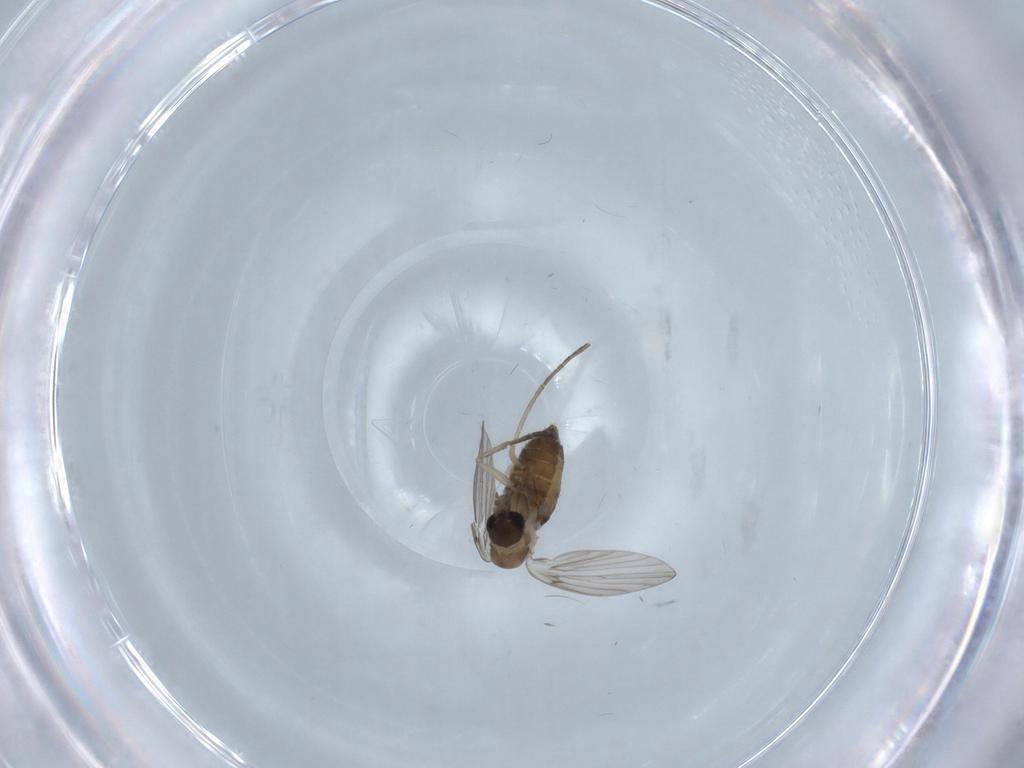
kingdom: Animalia
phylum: Arthropoda
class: Insecta
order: Diptera
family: Psychodidae
